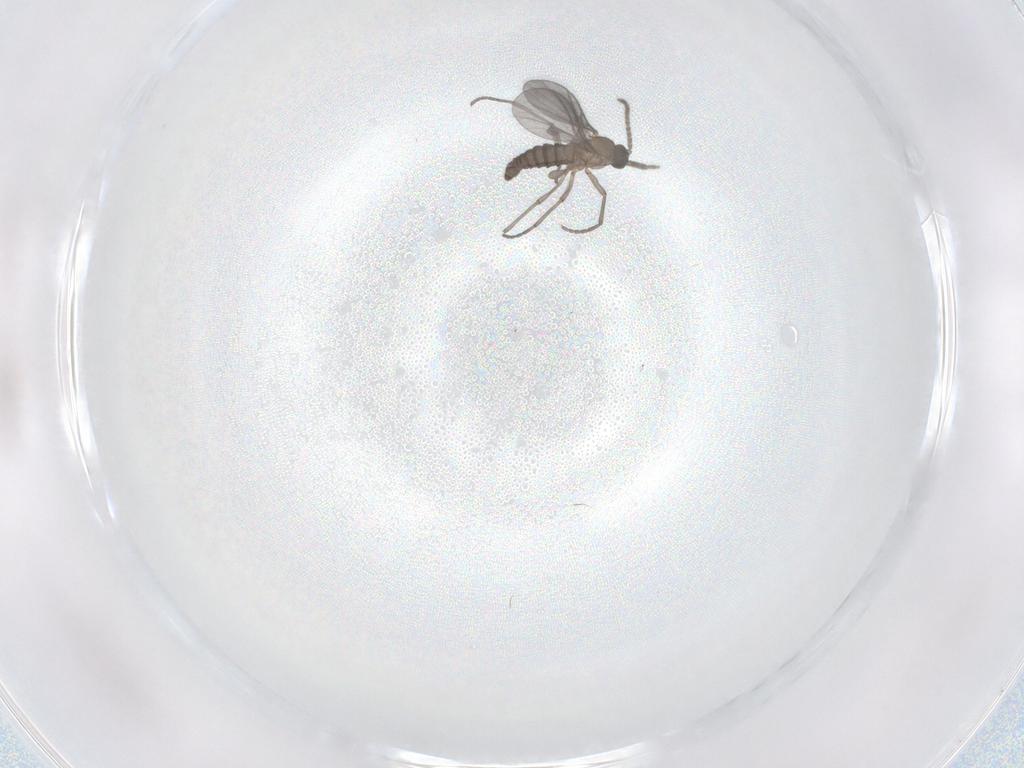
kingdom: Animalia
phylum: Arthropoda
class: Insecta
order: Diptera
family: Sciaridae
